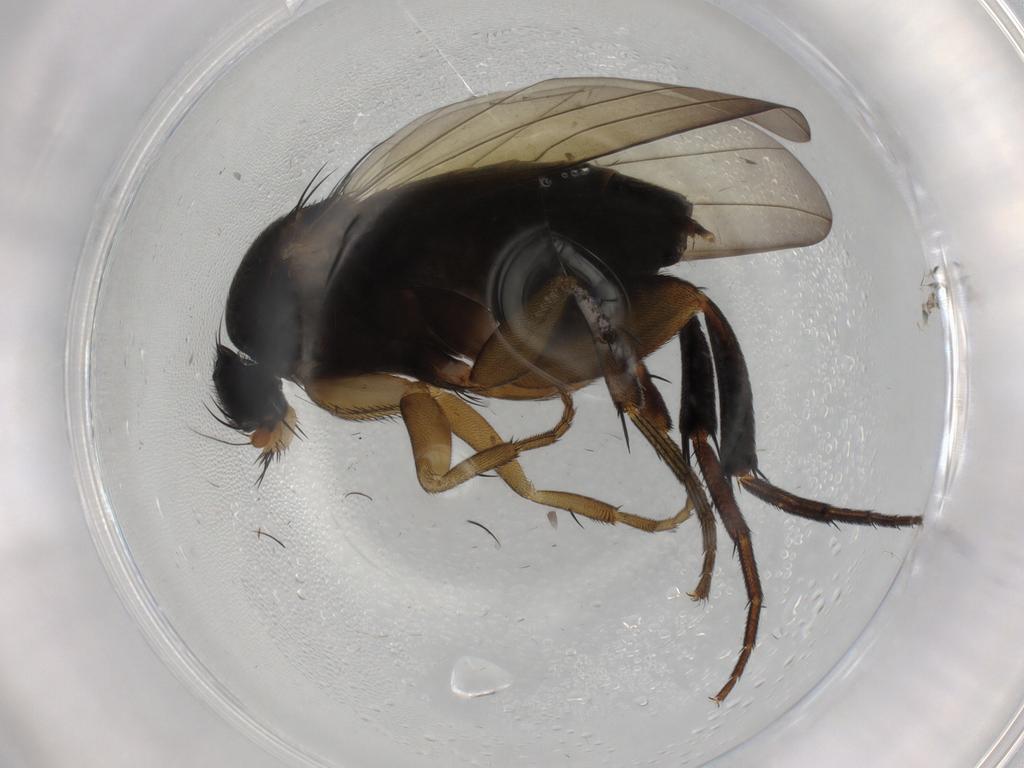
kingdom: Animalia
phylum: Arthropoda
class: Insecta
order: Diptera
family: Phoridae
